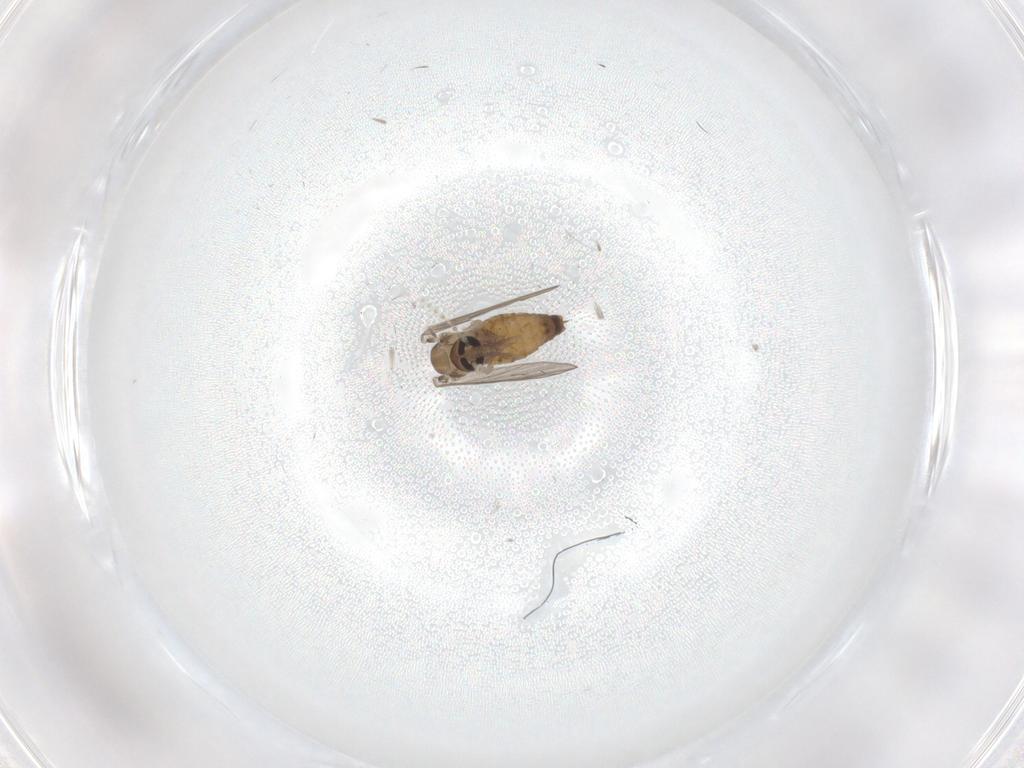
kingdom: Animalia
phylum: Arthropoda
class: Insecta
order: Diptera
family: Psychodidae
